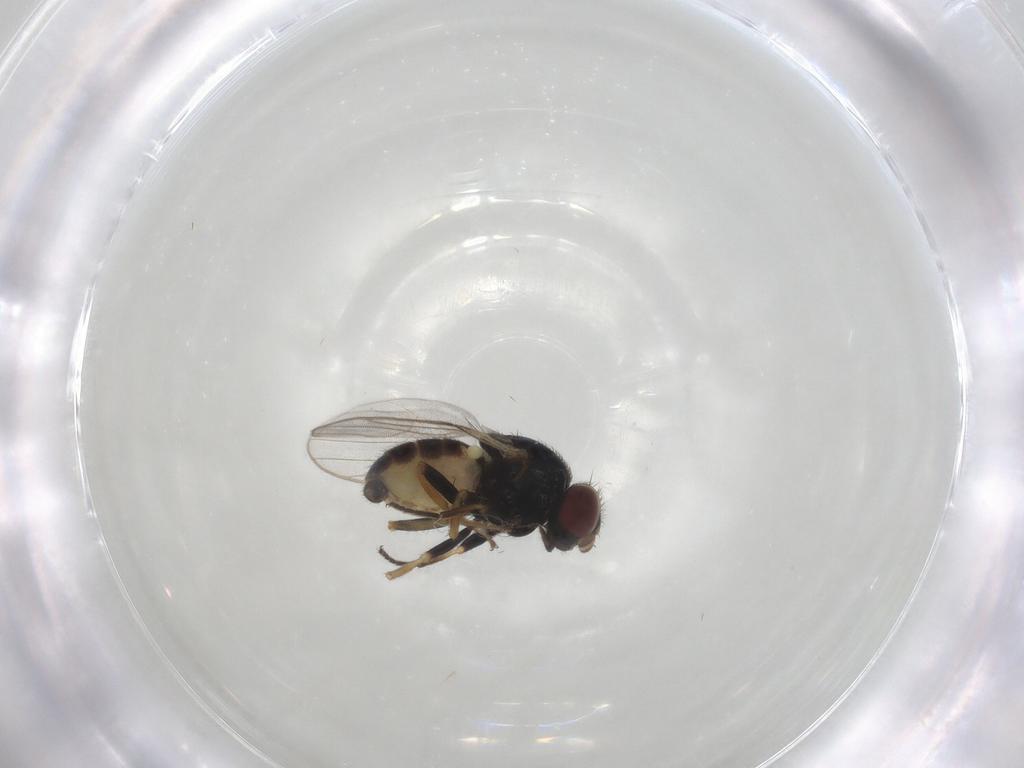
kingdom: Animalia
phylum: Arthropoda
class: Insecta
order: Diptera
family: Chloropidae
